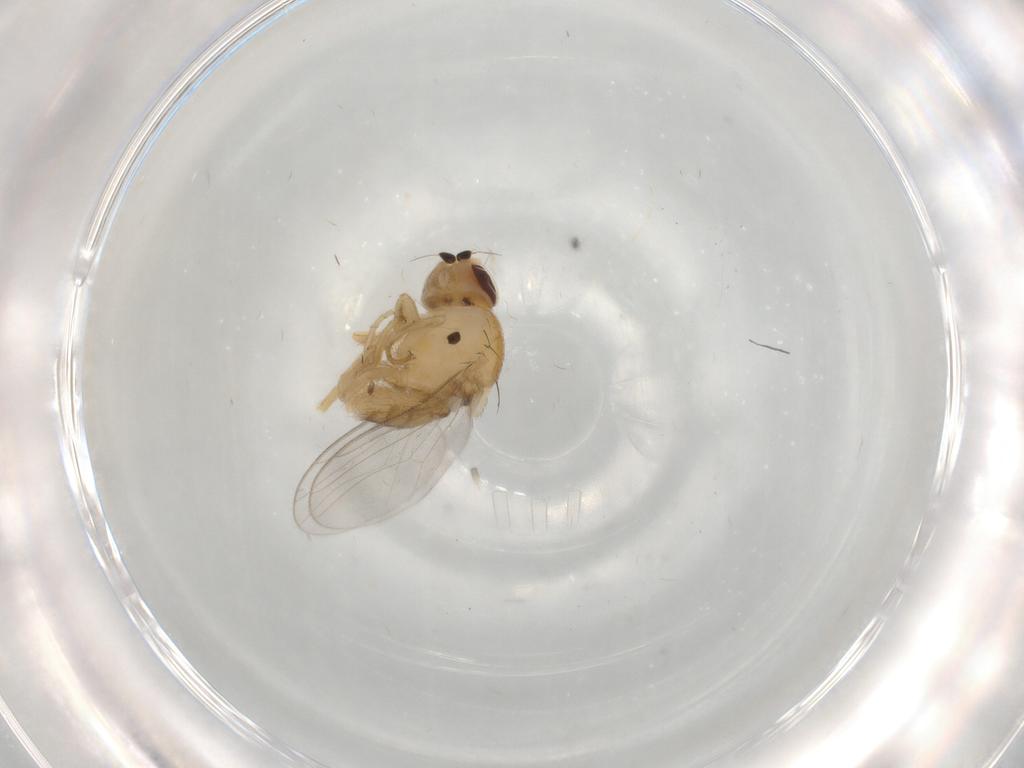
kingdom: Animalia
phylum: Arthropoda
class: Insecta
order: Diptera
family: Chloropidae
